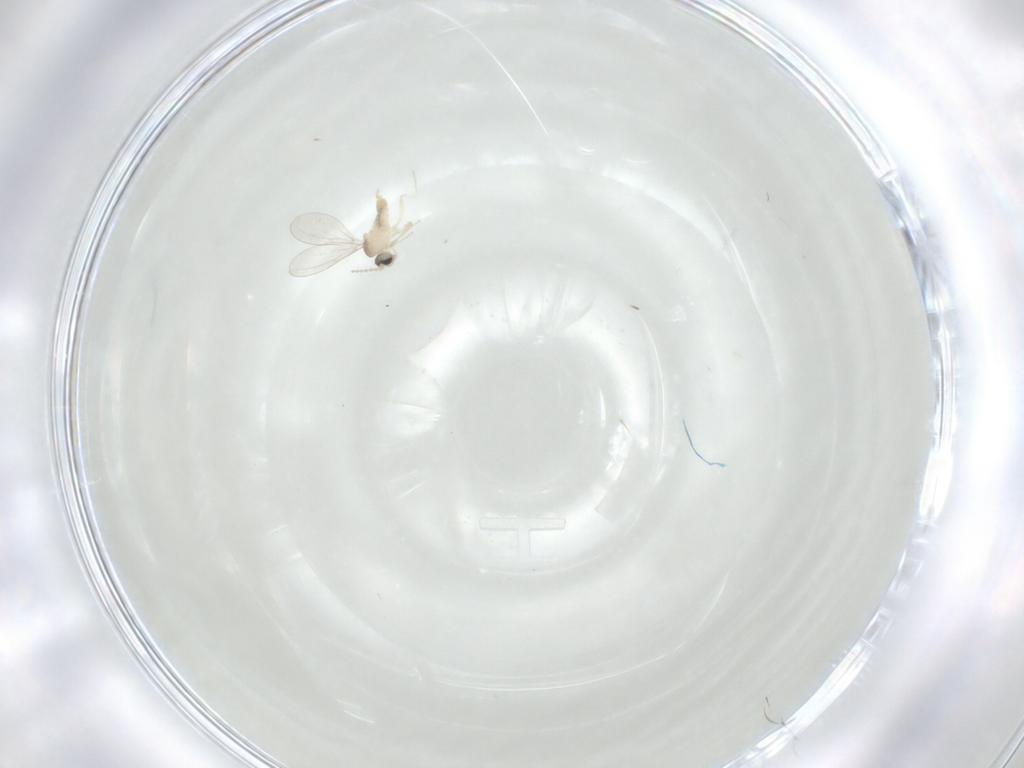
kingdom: Animalia
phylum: Arthropoda
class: Insecta
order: Diptera
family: Cecidomyiidae
